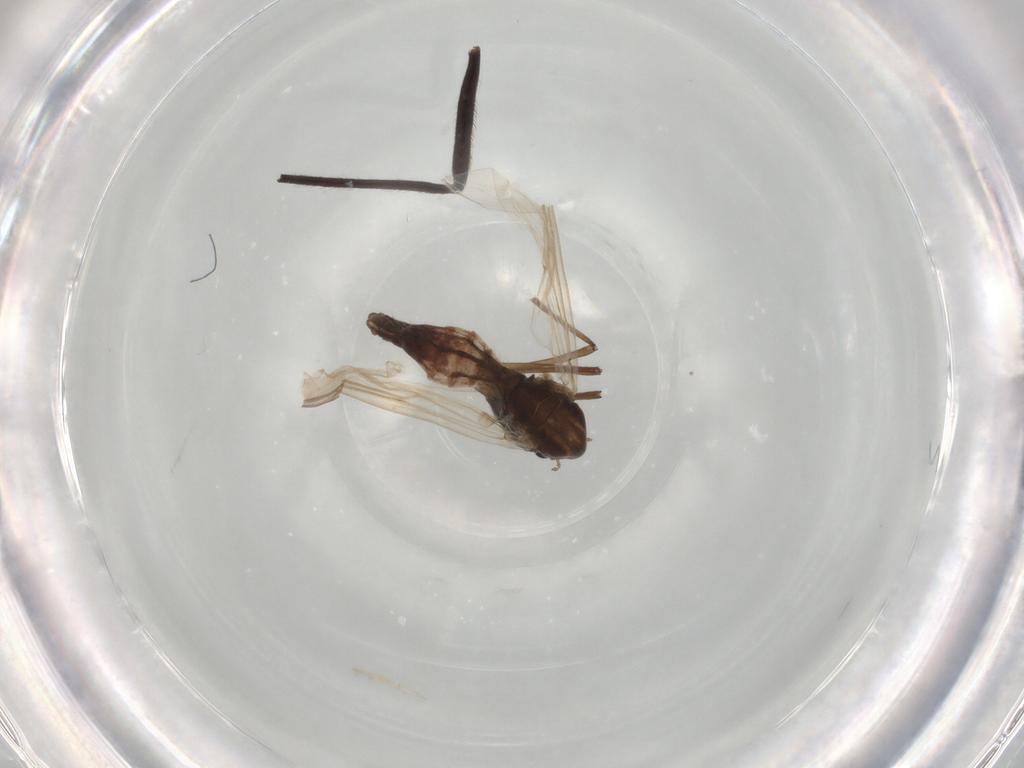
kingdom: Animalia
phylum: Arthropoda
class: Insecta
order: Diptera
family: Chironomidae
